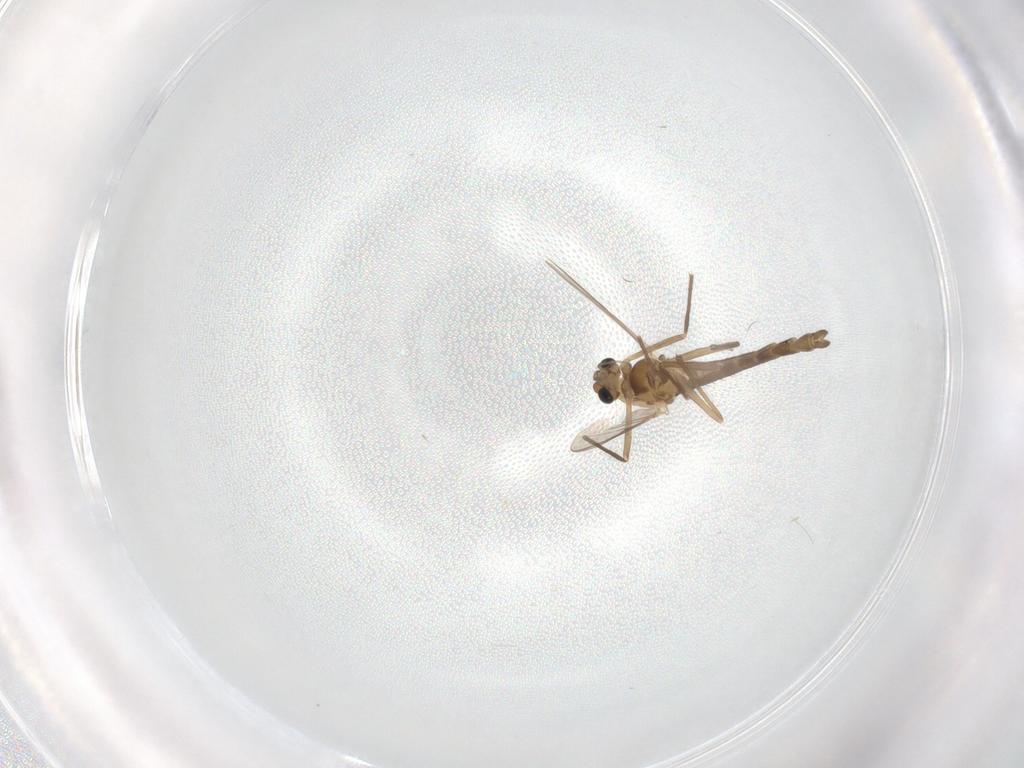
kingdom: Animalia
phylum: Arthropoda
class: Insecta
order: Diptera
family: Chironomidae
